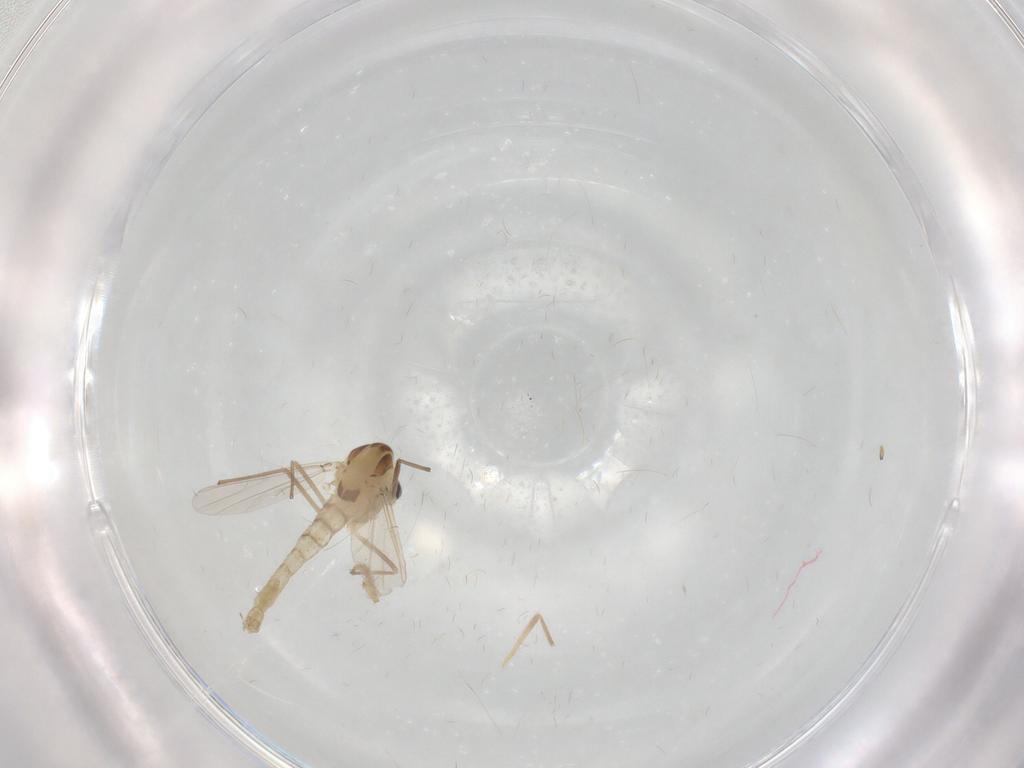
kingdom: Animalia
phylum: Arthropoda
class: Insecta
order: Diptera
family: Chironomidae
